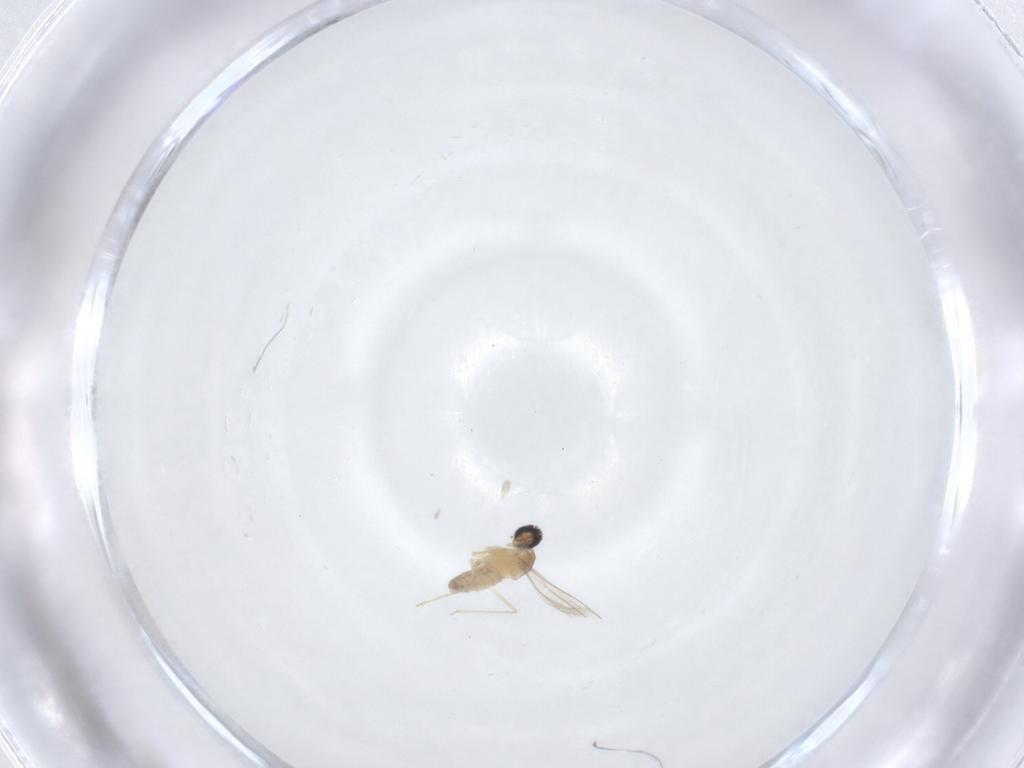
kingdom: Animalia
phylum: Arthropoda
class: Insecta
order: Diptera
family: Cecidomyiidae
